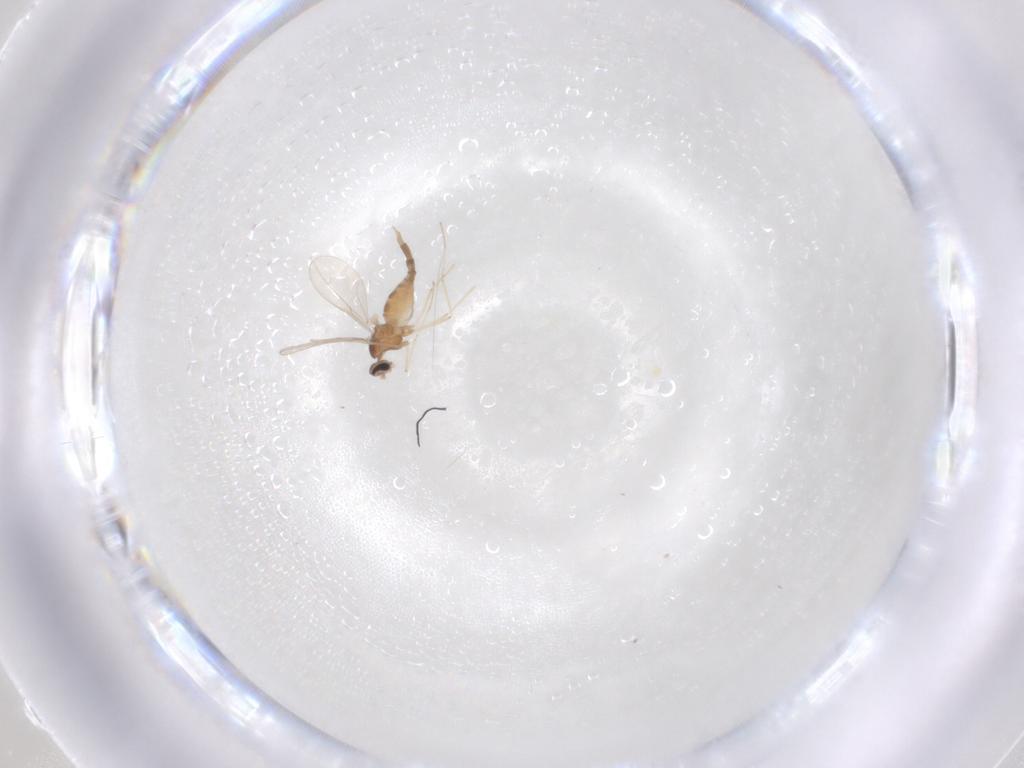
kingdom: Animalia
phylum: Arthropoda
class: Insecta
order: Diptera
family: Cecidomyiidae
